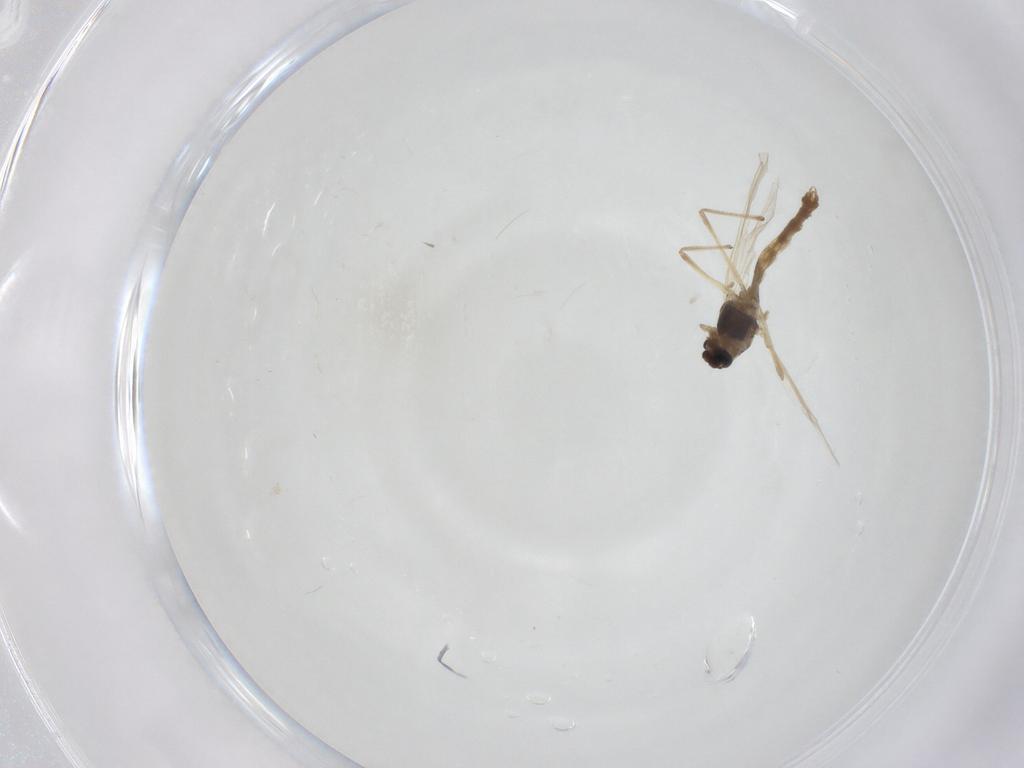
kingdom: Animalia
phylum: Arthropoda
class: Insecta
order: Diptera
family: Chironomidae
